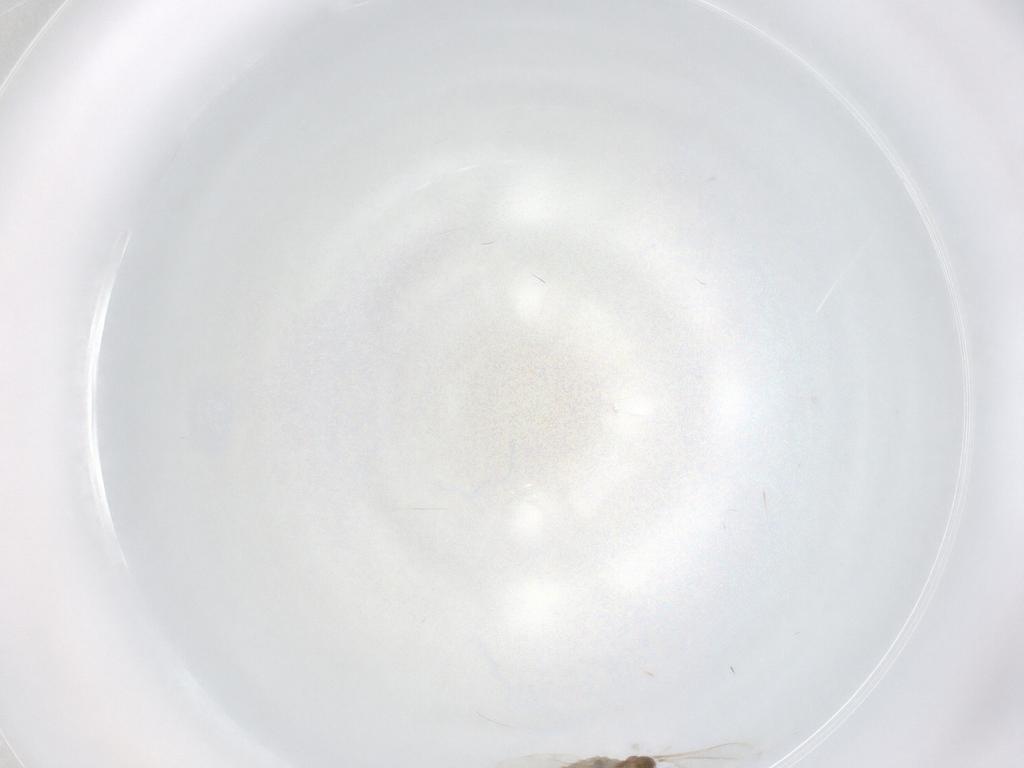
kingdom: Animalia
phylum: Arthropoda
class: Insecta
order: Diptera
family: Cecidomyiidae
